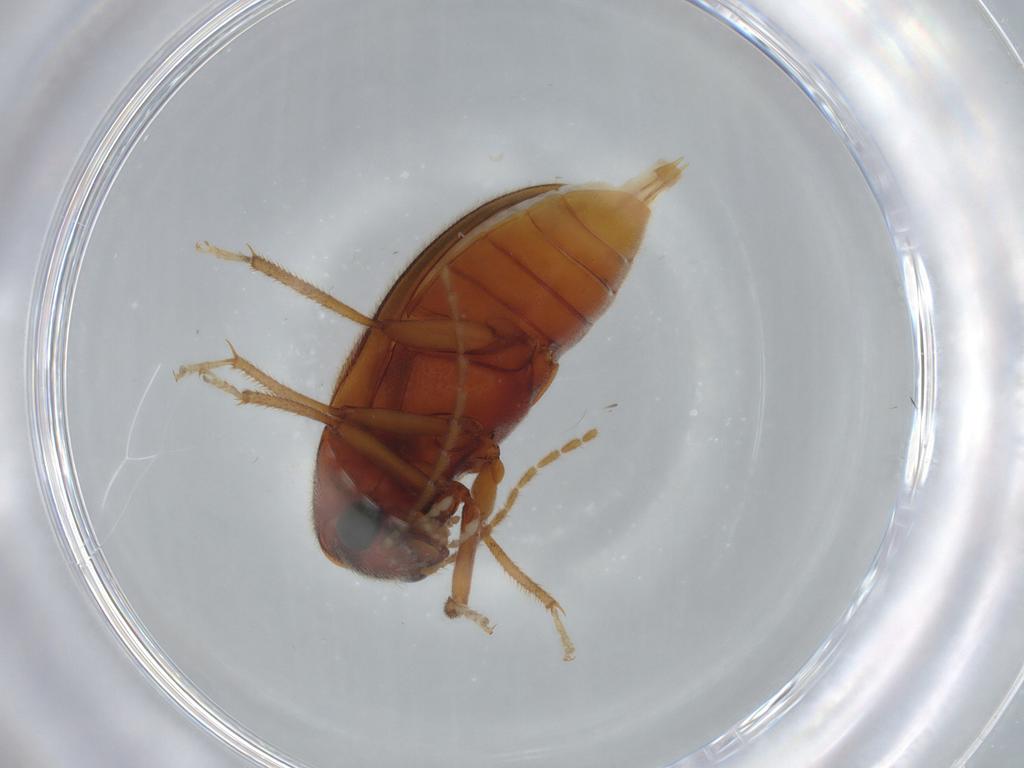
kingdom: Animalia
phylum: Arthropoda
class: Insecta
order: Coleoptera
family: Ptilodactylidae
